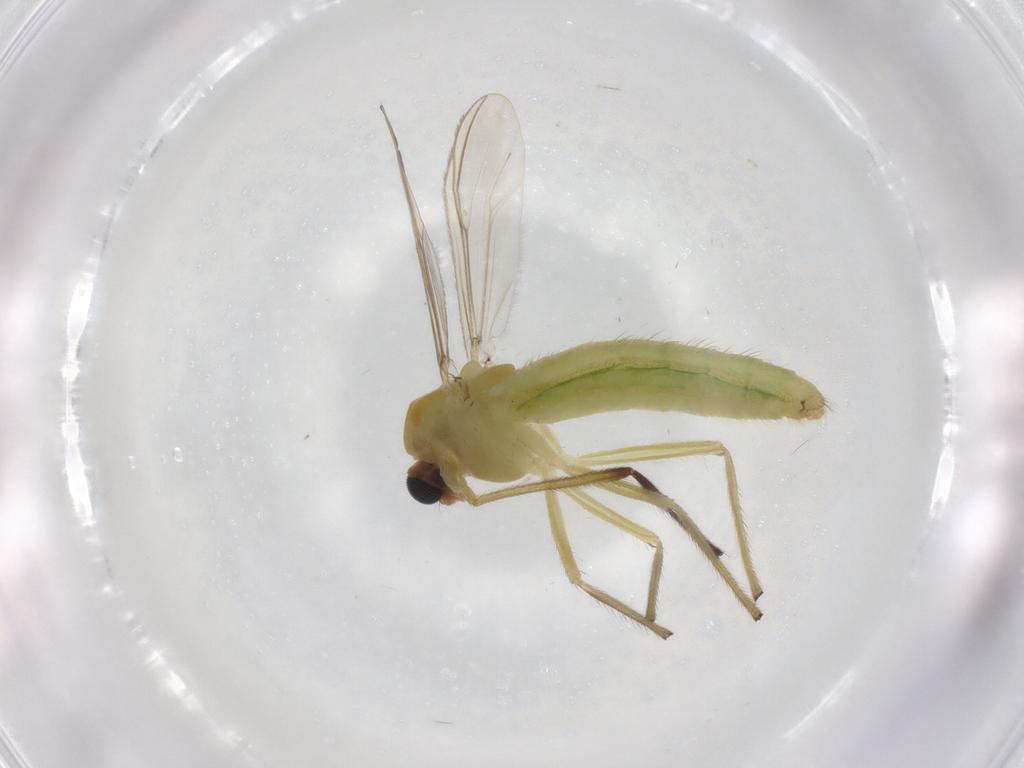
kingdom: Animalia
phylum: Arthropoda
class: Insecta
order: Diptera
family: Chironomidae
